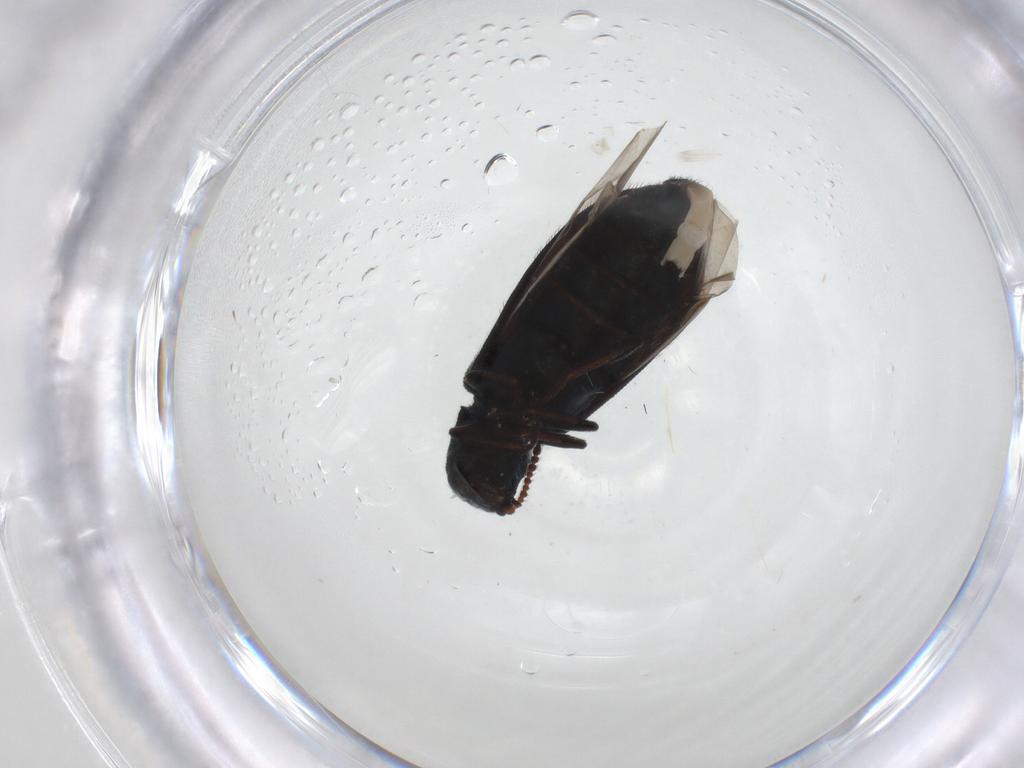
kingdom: Animalia
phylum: Arthropoda
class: Insecta
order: Coleoptera
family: Melyridae
